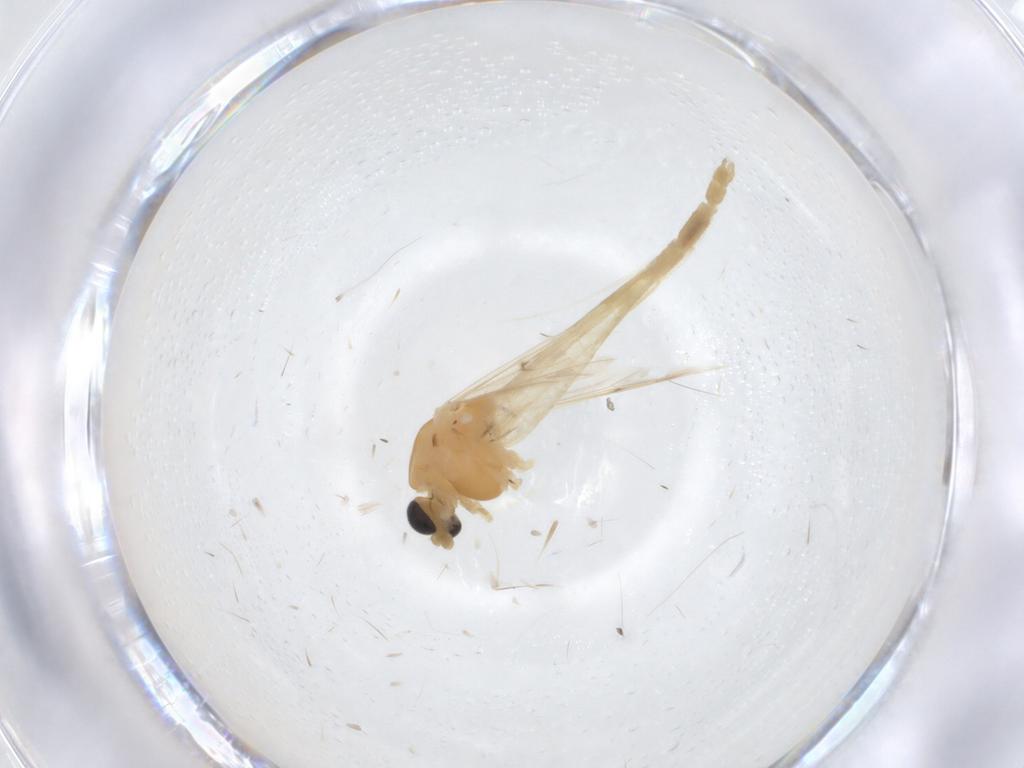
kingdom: Animalia
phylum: Arthropoda
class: Insecta
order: Diptera
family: Chironomidae
